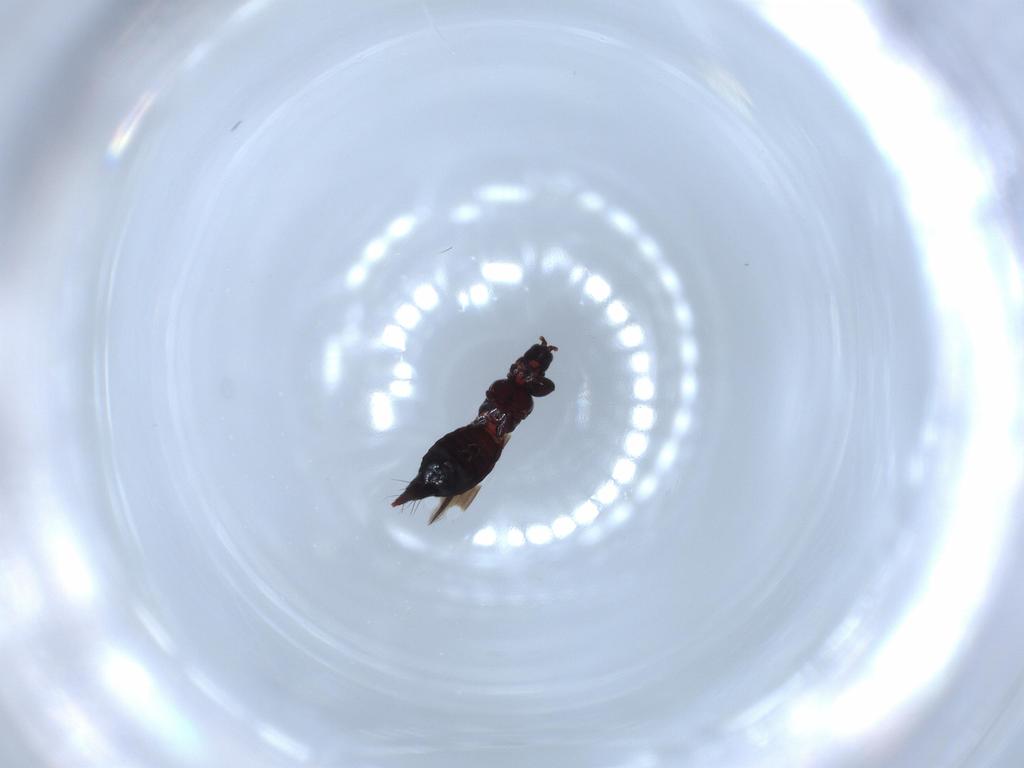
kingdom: Animalia
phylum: Arthropoda
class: Insecta
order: Thysanoptera
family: Aeolothripidae
